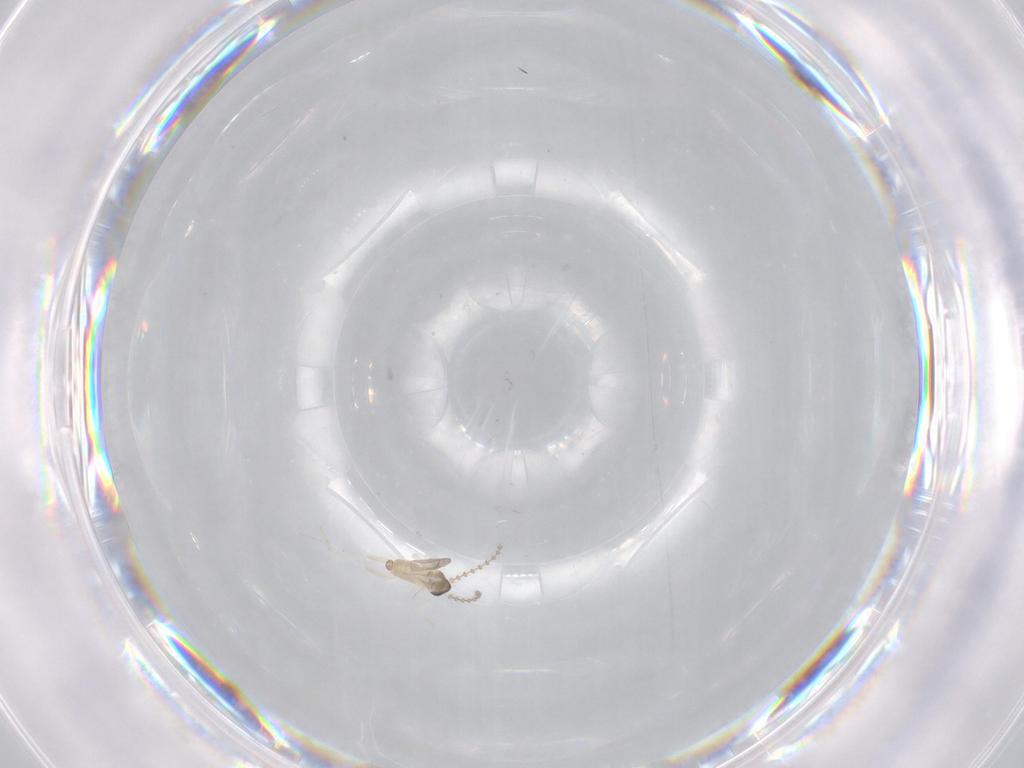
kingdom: Animalia
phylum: Arthropoda
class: Insecta
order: Diptera
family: Cecidomyiidae
